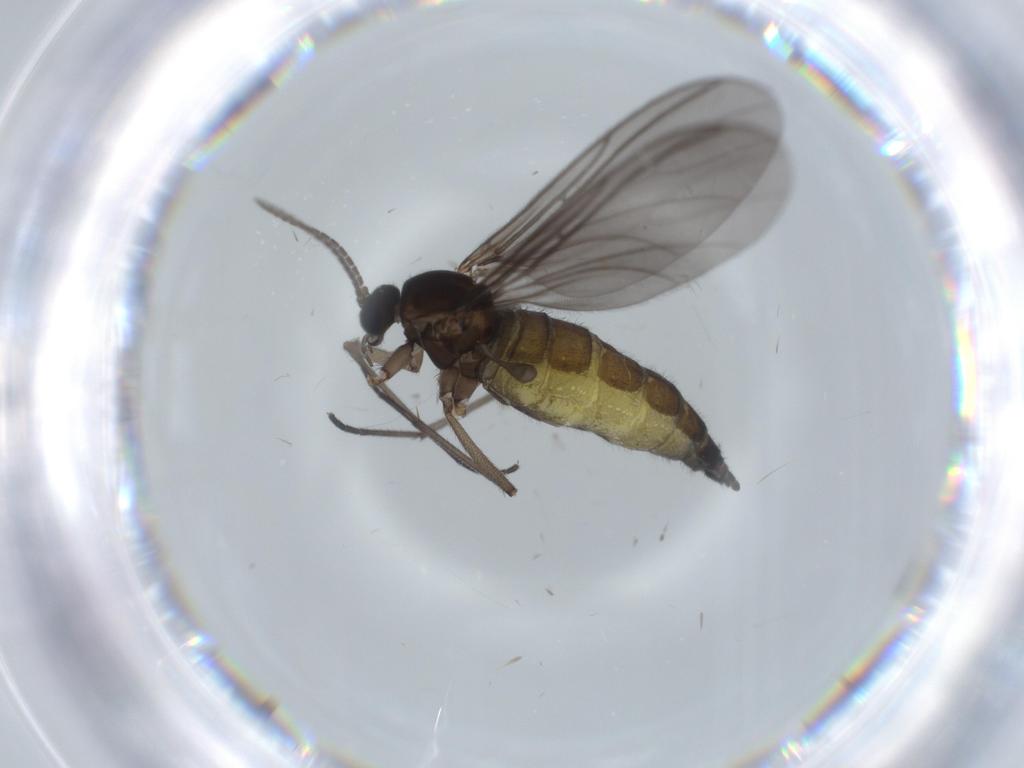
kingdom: Animalia
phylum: Arthropoda
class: Insecta
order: Diptera
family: Sciaridae
